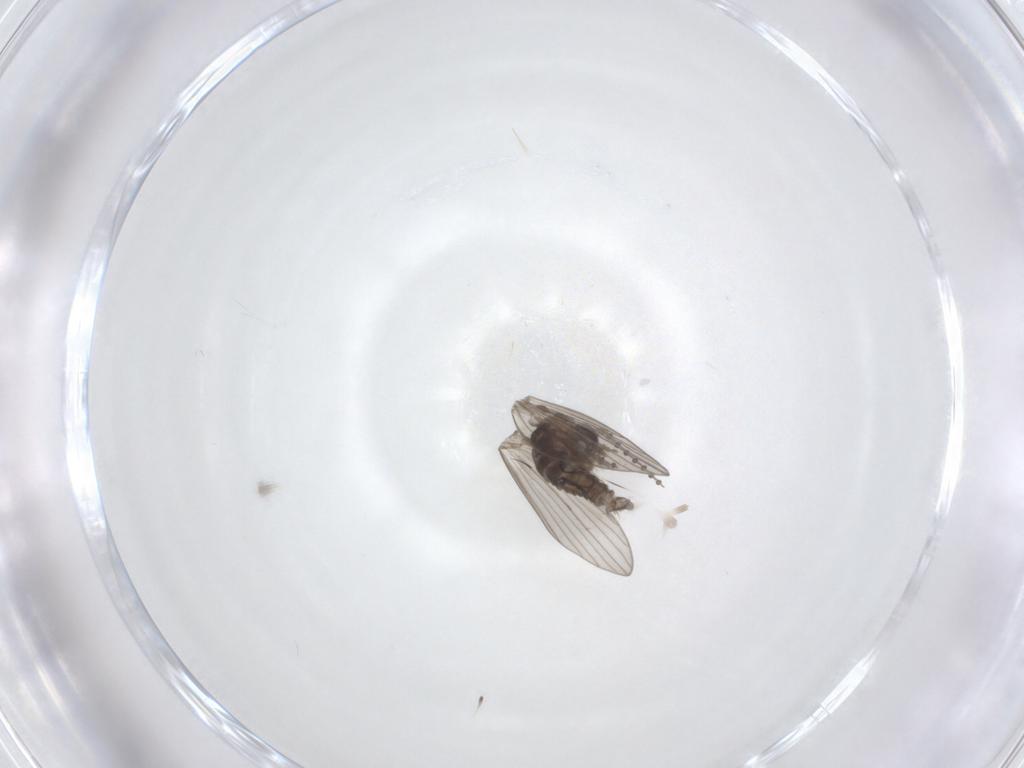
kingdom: Animalia
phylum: Arthropoda
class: Insecta
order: Diptera
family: Psychodidae
